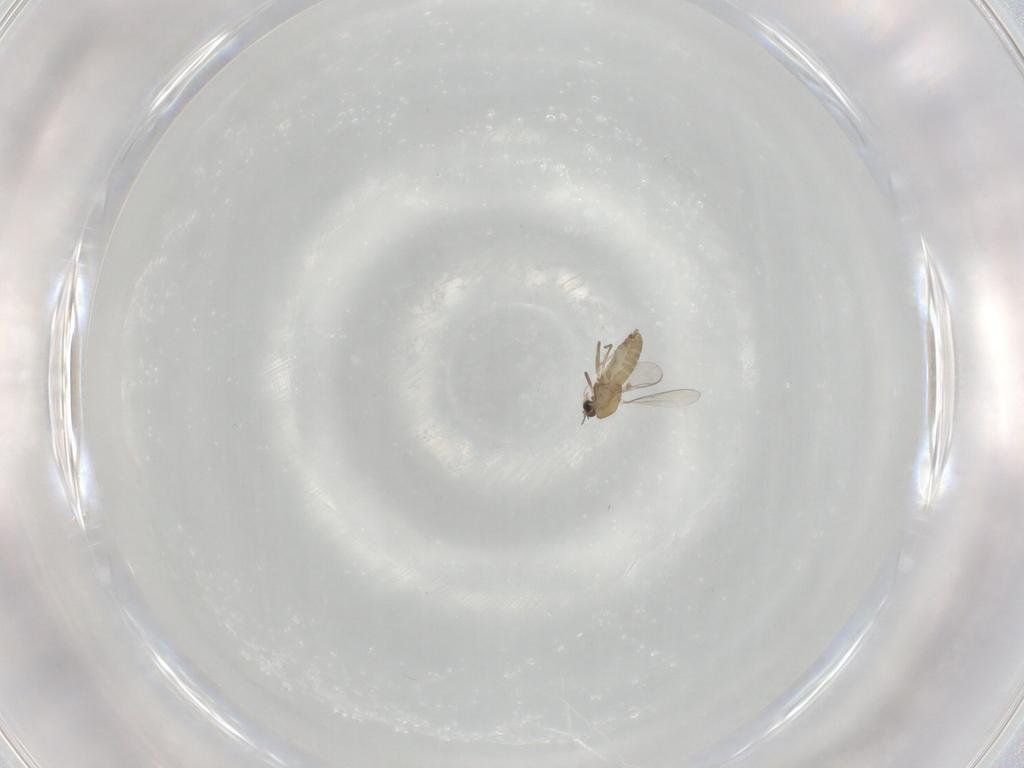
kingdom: Animalia
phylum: Arthropoda
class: Insecta
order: Diptera
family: Chironomidae
